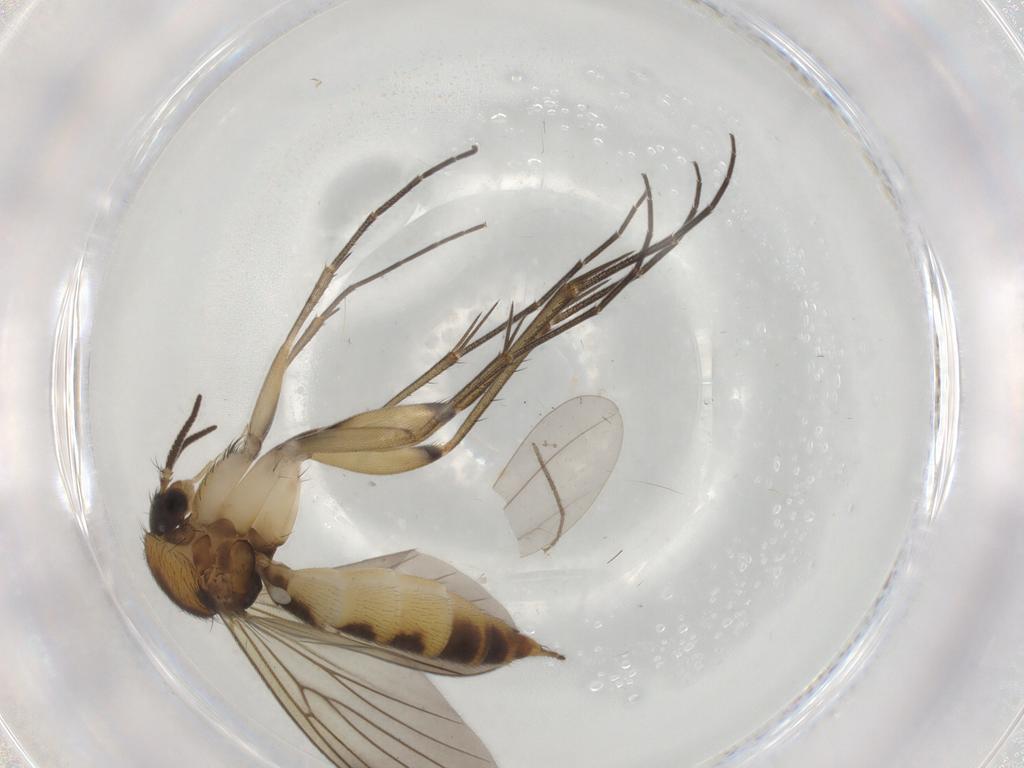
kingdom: Animalia
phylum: Arthropoda
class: Insecta
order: Diptera
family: Mycetophilidae
